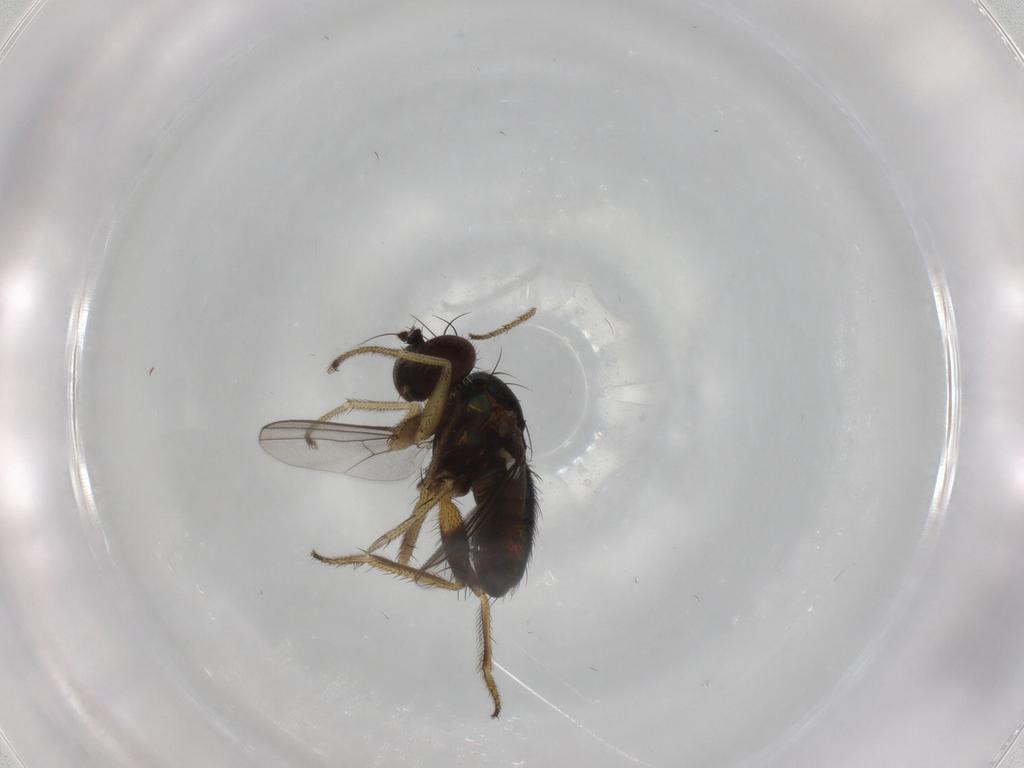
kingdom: Animalia
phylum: Arthropoda
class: Insecta
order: Diptera
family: Dolichopodidae
